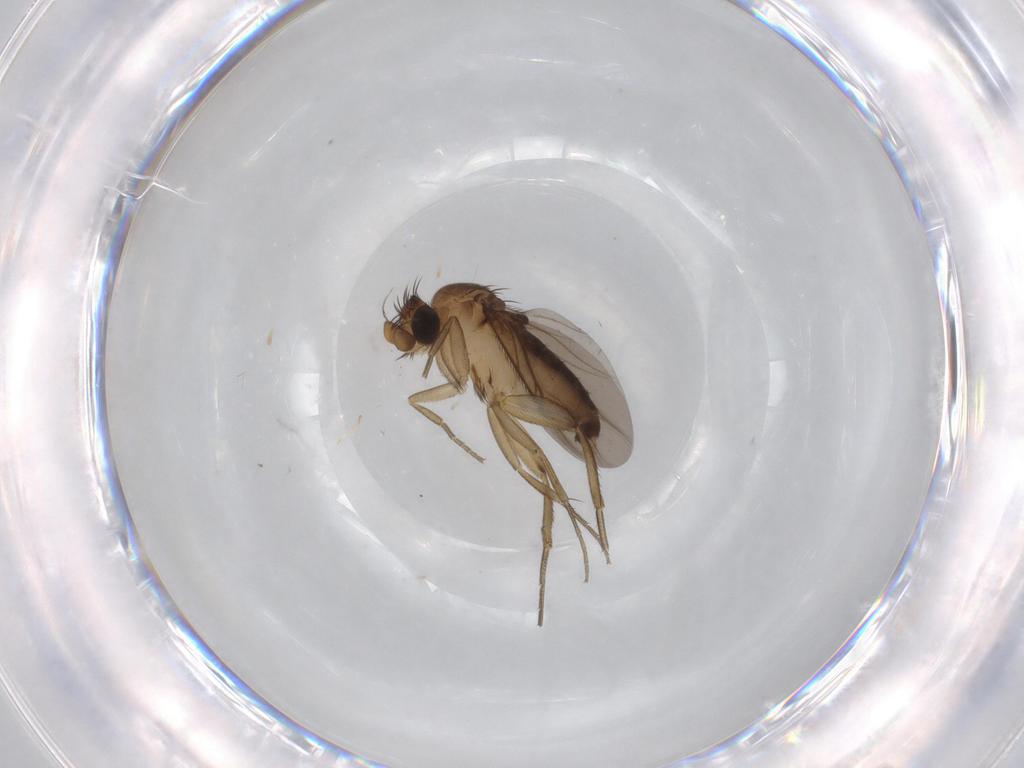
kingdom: Animalia
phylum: Arthropoda
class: Insecta
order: Diptera
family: Phoridae
